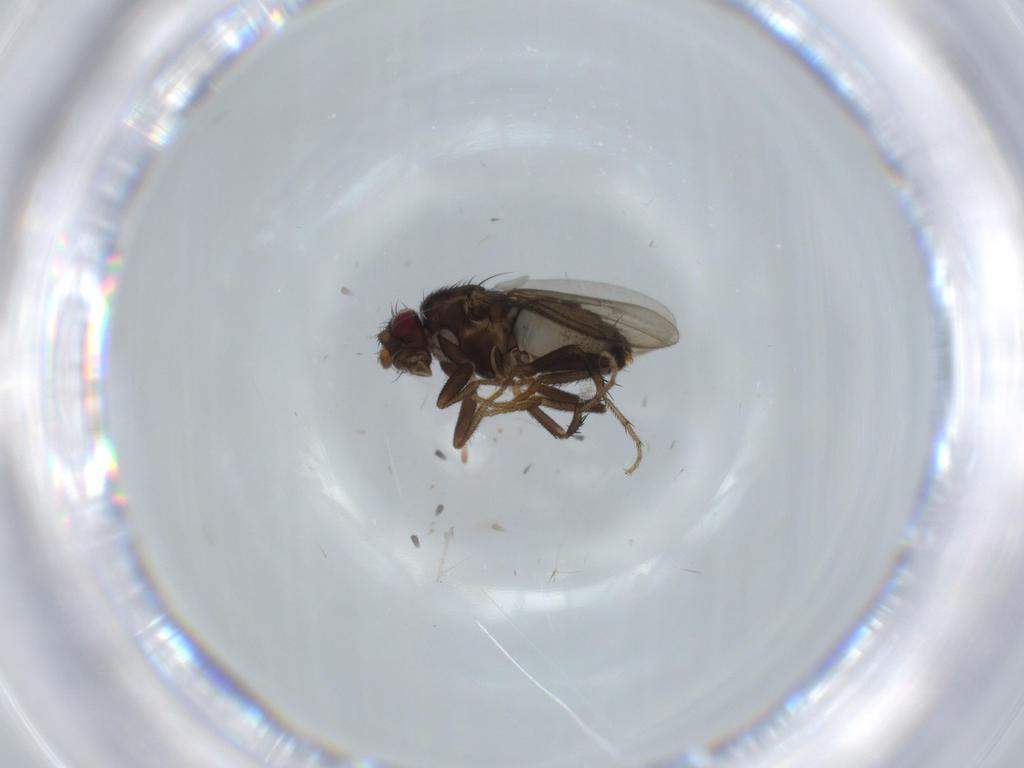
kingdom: Animalia
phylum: Arthropoda
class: Insecta
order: Diptera
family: Sphaeroceridae
